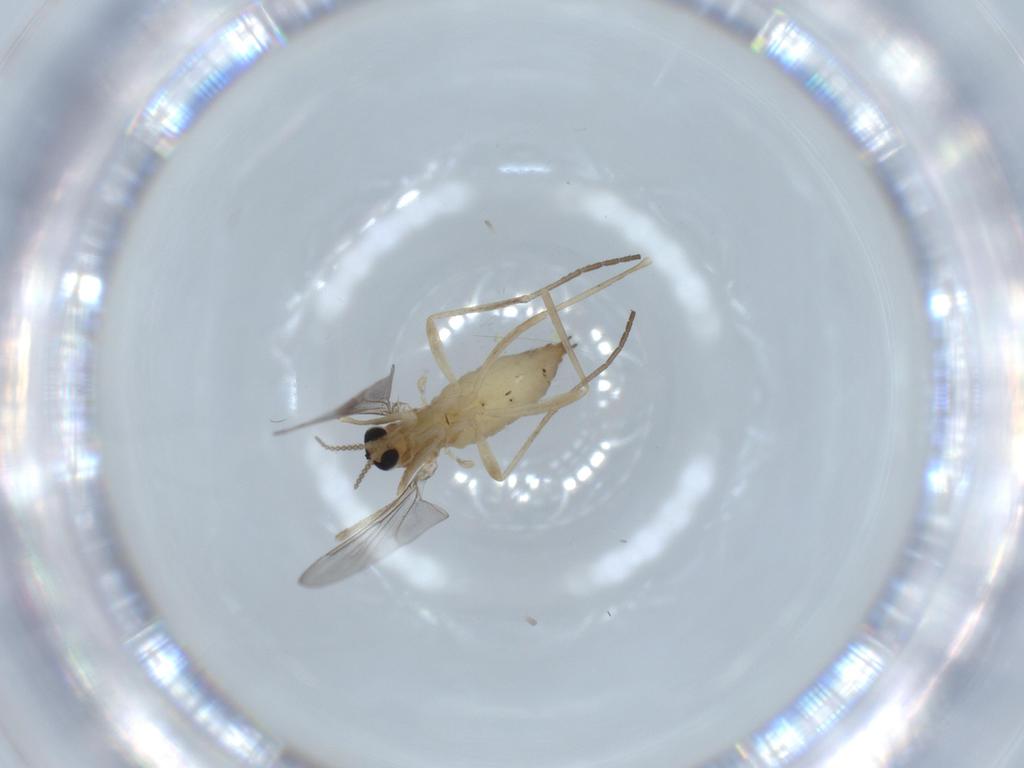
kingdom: Animalia
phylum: Arthropoda
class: Insecta
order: Diptera
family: Cecidomyiidae
